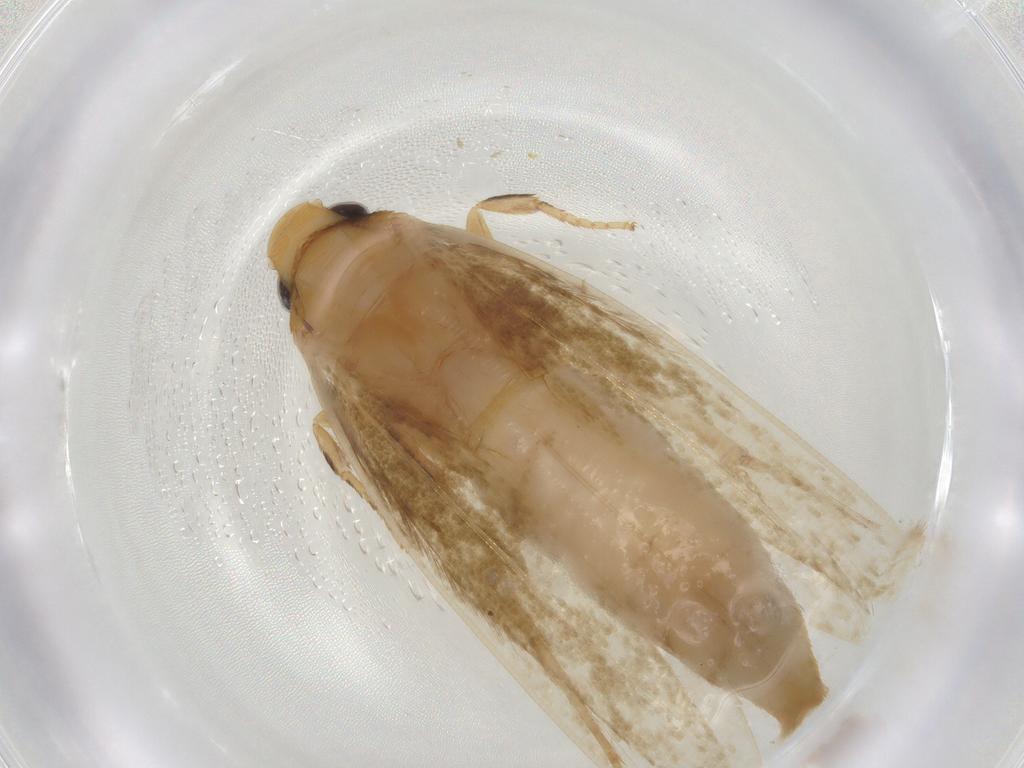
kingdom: Animalia
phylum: Arthropoda
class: Insecta
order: Lepidoptera
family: Tineidae
